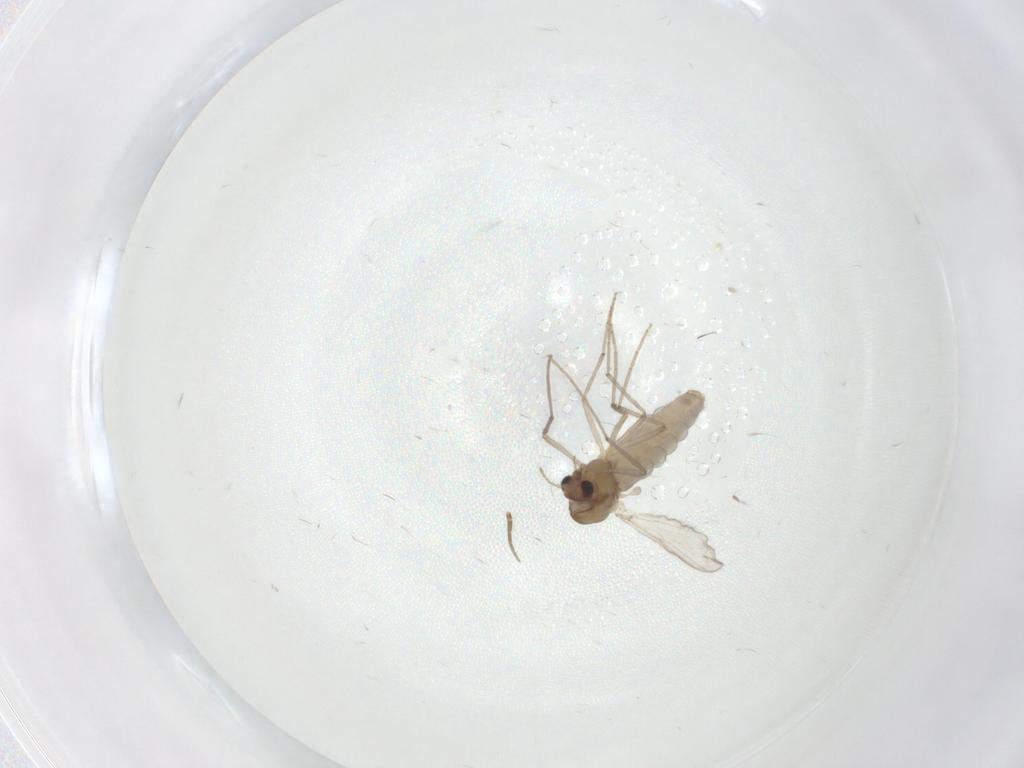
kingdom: Animalia
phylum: Arthropoda
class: Insecta
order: Diptera
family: Chironomidae
